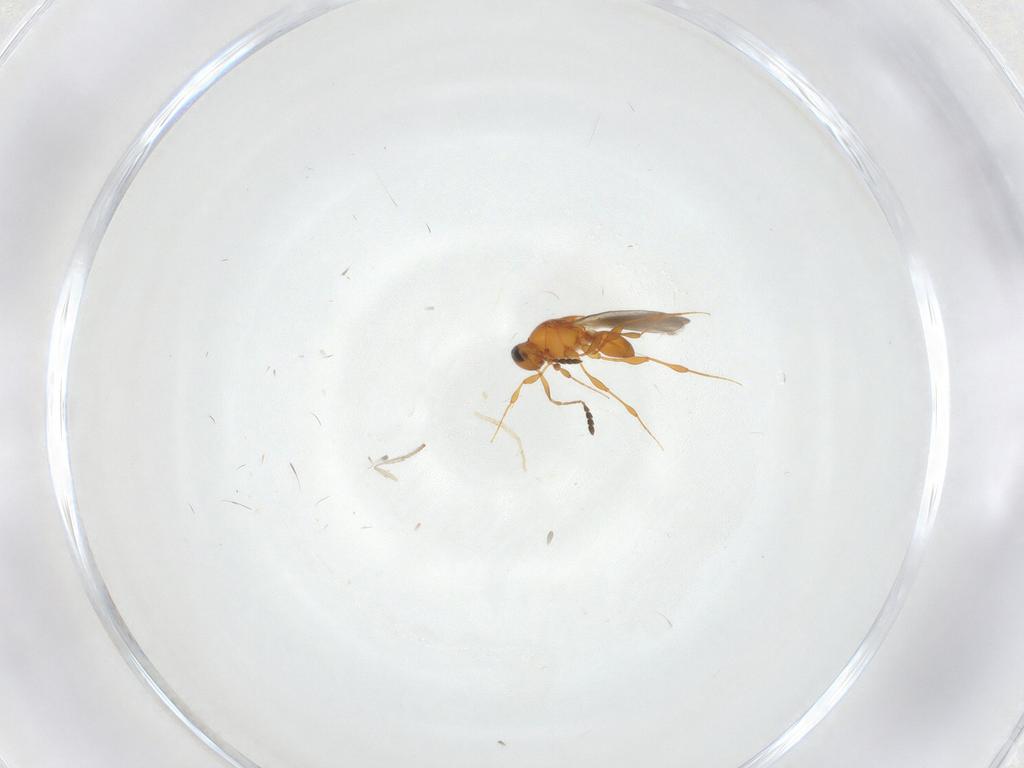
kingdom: Animalia
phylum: Arthropoda
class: Insecta
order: Hymenoptera
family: Platygastridae
